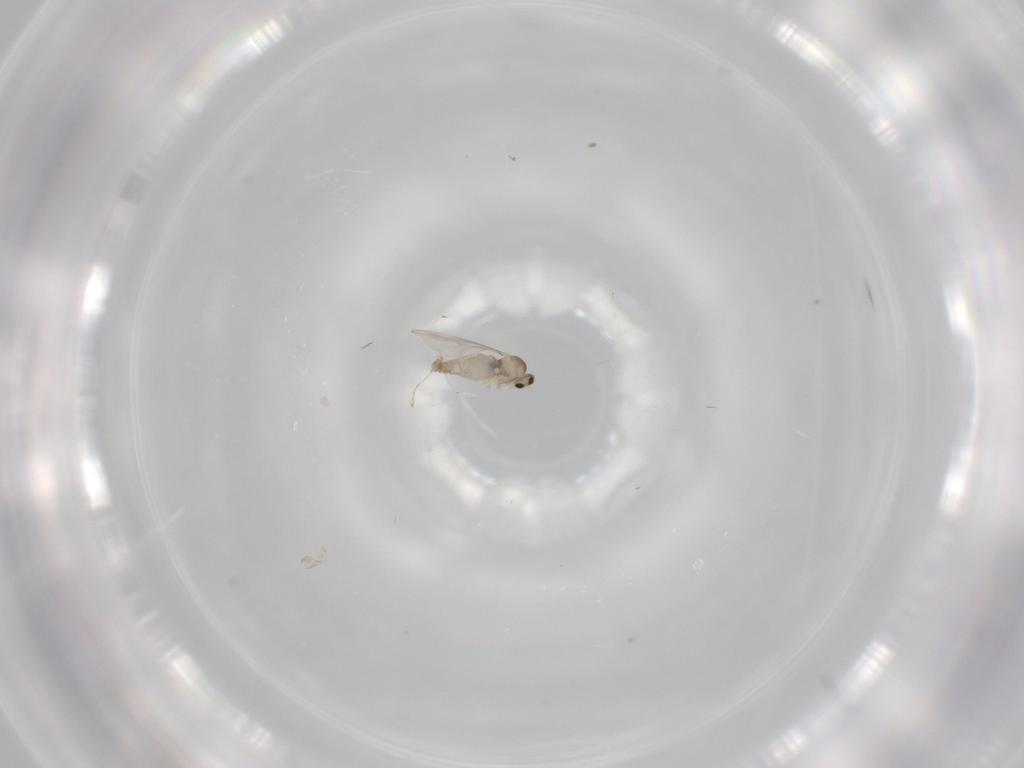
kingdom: Animalia
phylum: Arthropoda
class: Insecta
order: Diptera
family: Cecidomyiidae
